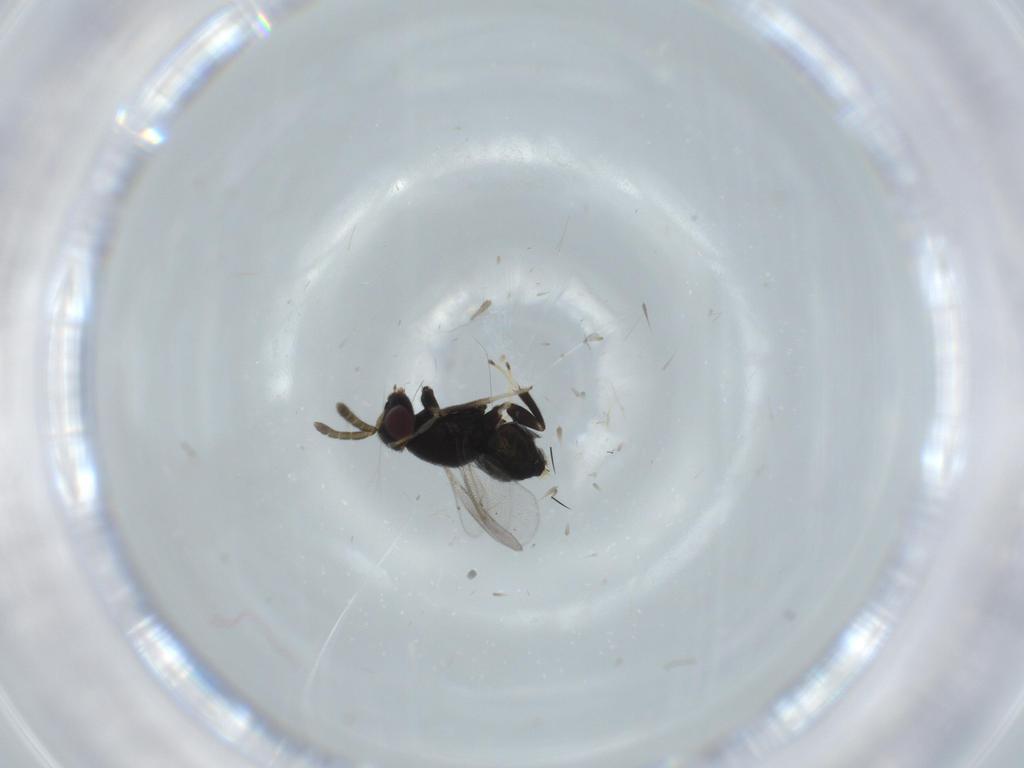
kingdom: Animalia
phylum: Arthropoda
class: Insecta
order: Hymenoptera
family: Aphelinidae
